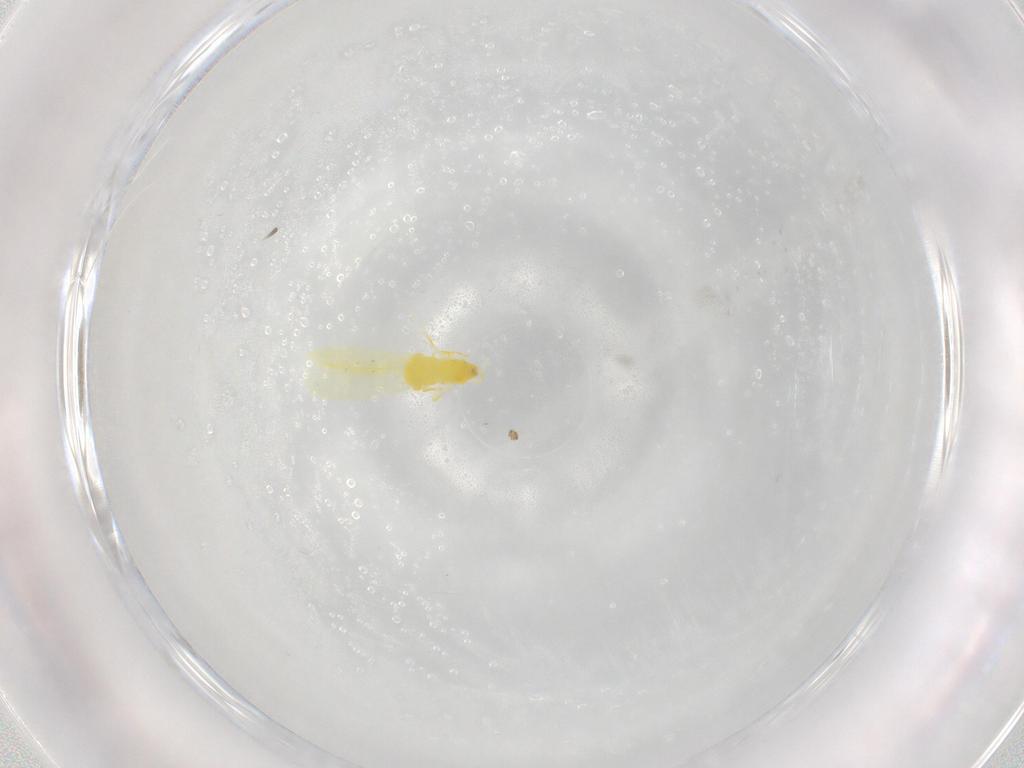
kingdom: Animalia
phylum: Arthropoda
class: Insecta
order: Hemiptera
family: Aleyrodidae
